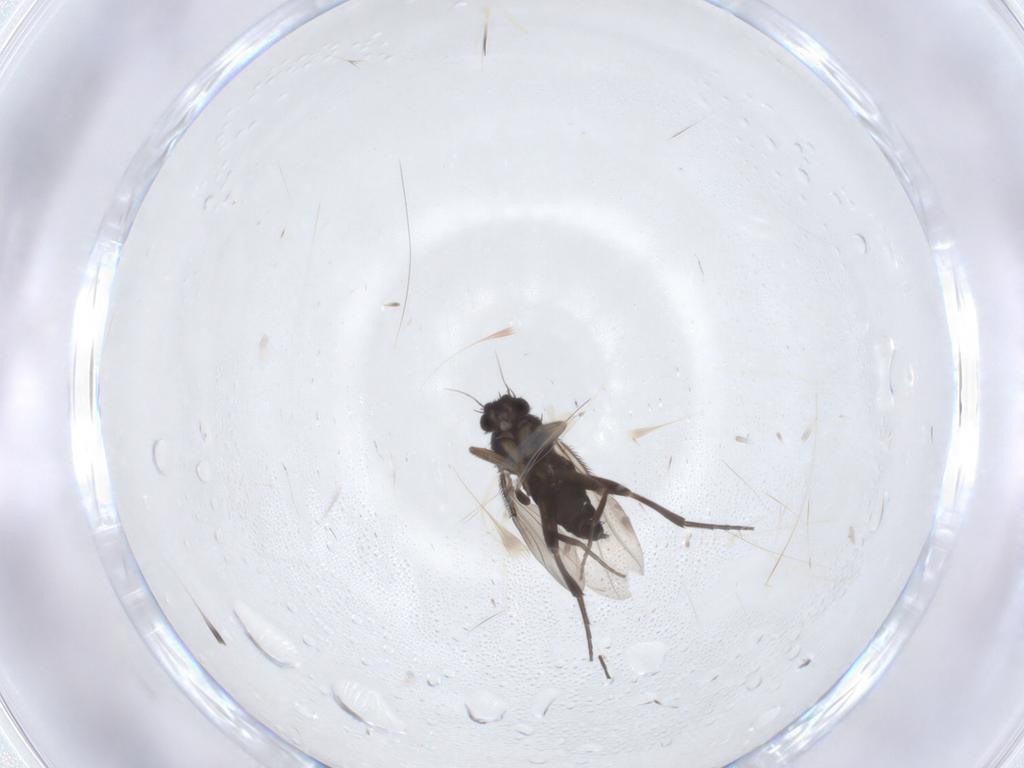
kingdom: Animalia
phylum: Arthropoda
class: Insecta
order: Diptera
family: Phoridae
